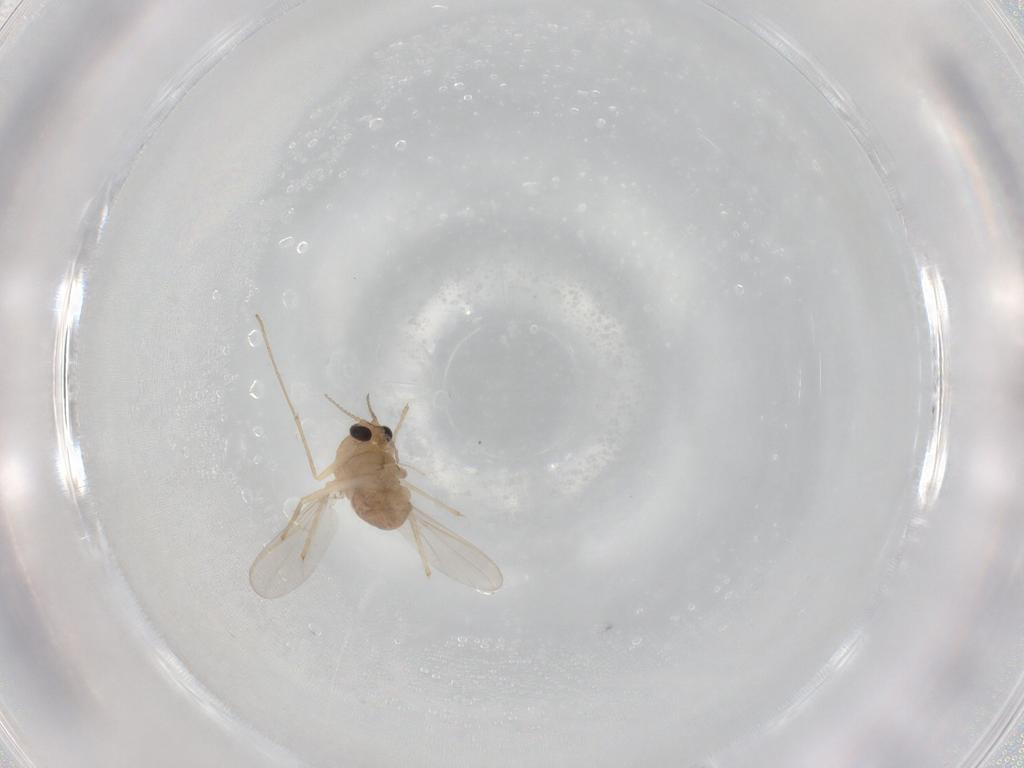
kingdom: Animalia
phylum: Arthropoda
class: Insecta
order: Diptera
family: Chironomidae
